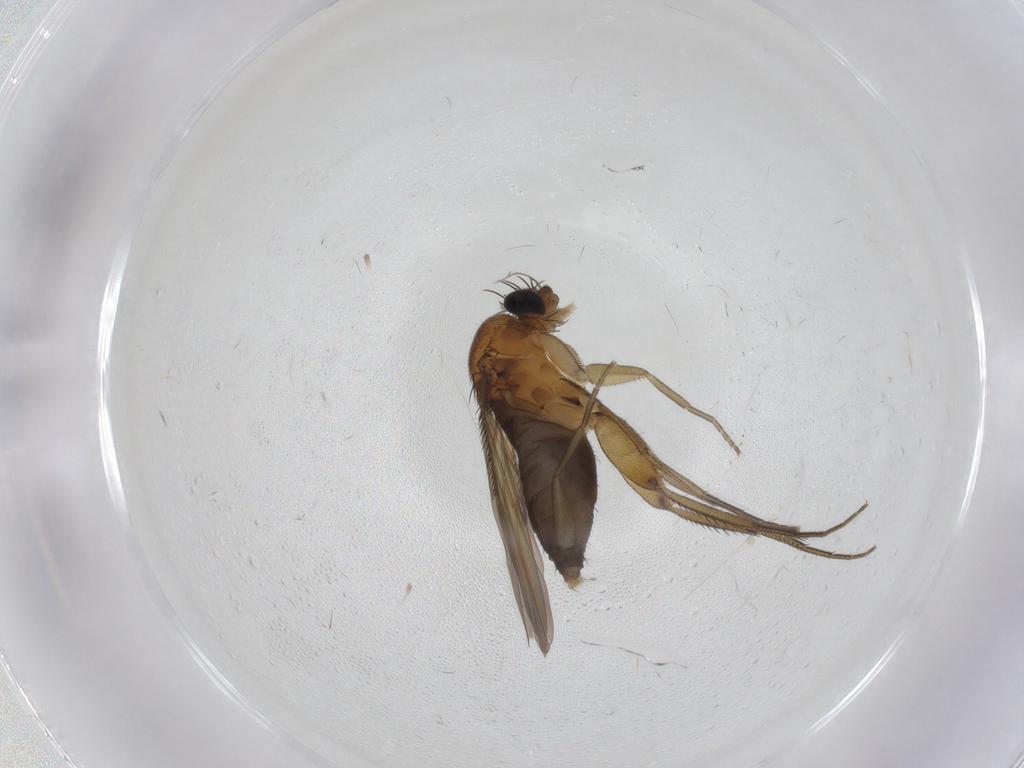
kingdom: Animalia
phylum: Arthropoda
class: Insecta
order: Diptera
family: Phoridae
